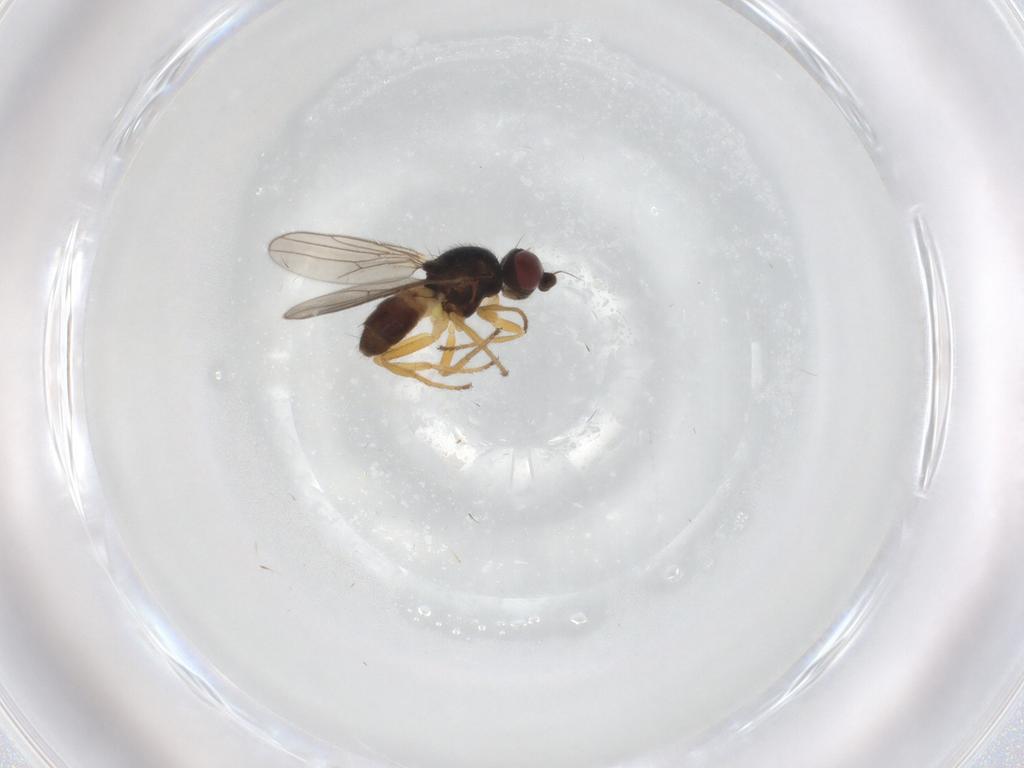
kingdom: Animalia
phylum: Arthropoda
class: Insecta
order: Diptera
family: Chloropidae
